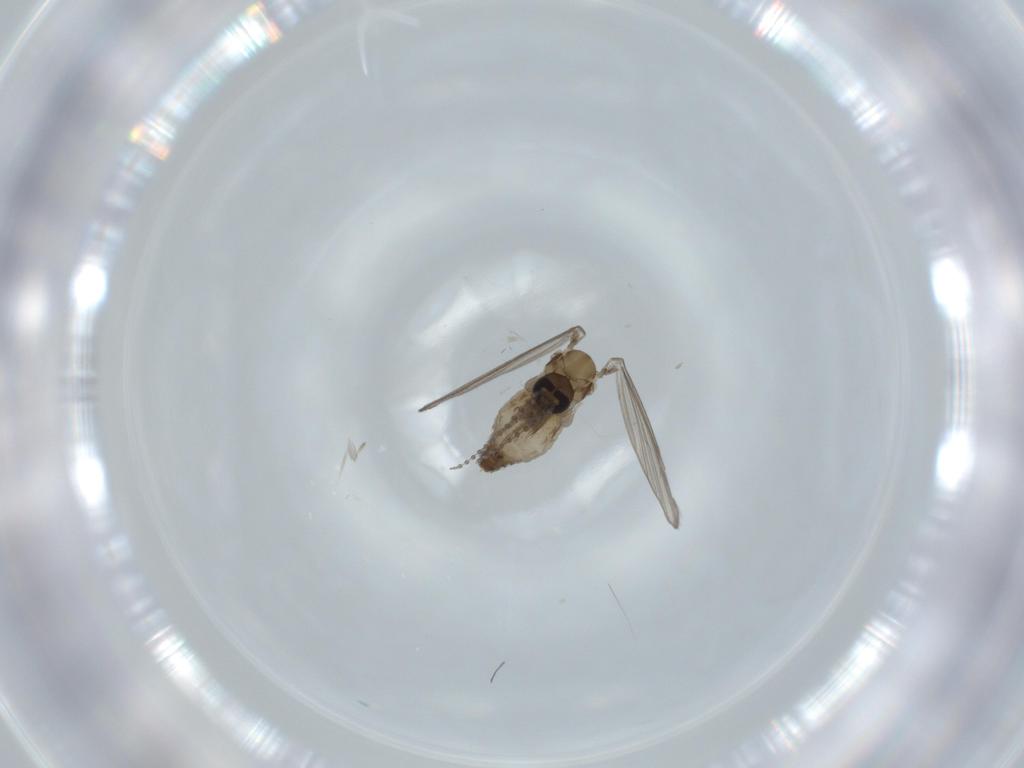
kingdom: Animalia
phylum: Arthropoda
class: Insecta
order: Diptera
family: Psychodidae
